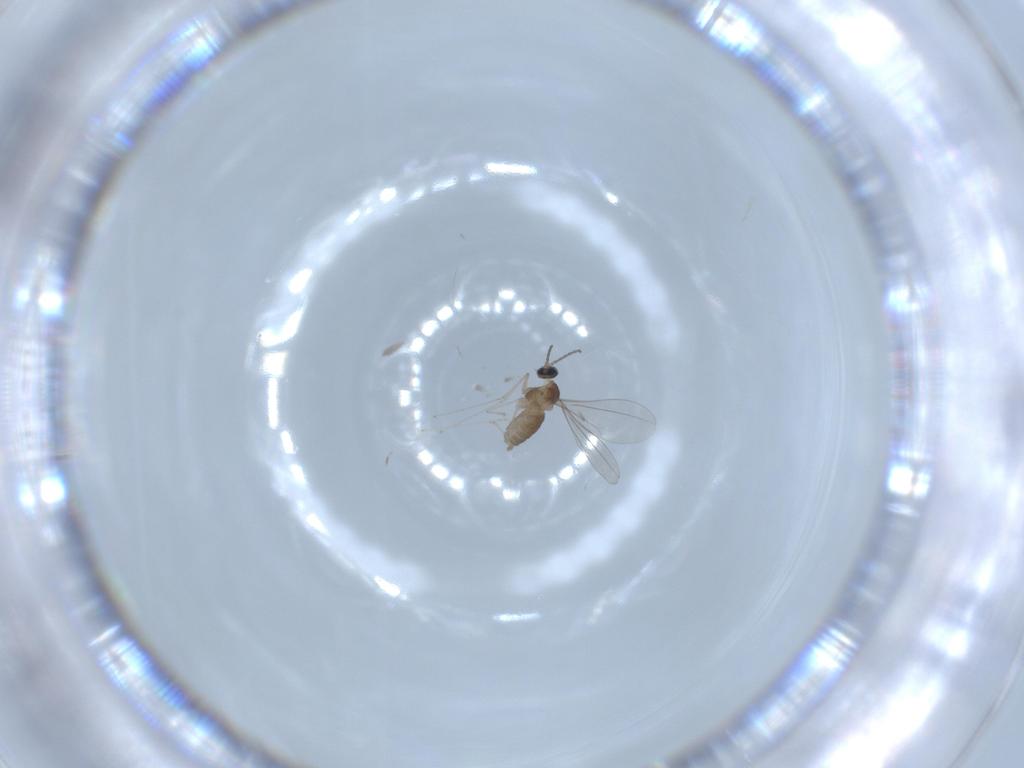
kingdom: Animalia
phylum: Arthropoda
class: Insecta
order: Diptera
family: Cecidomyiidae
